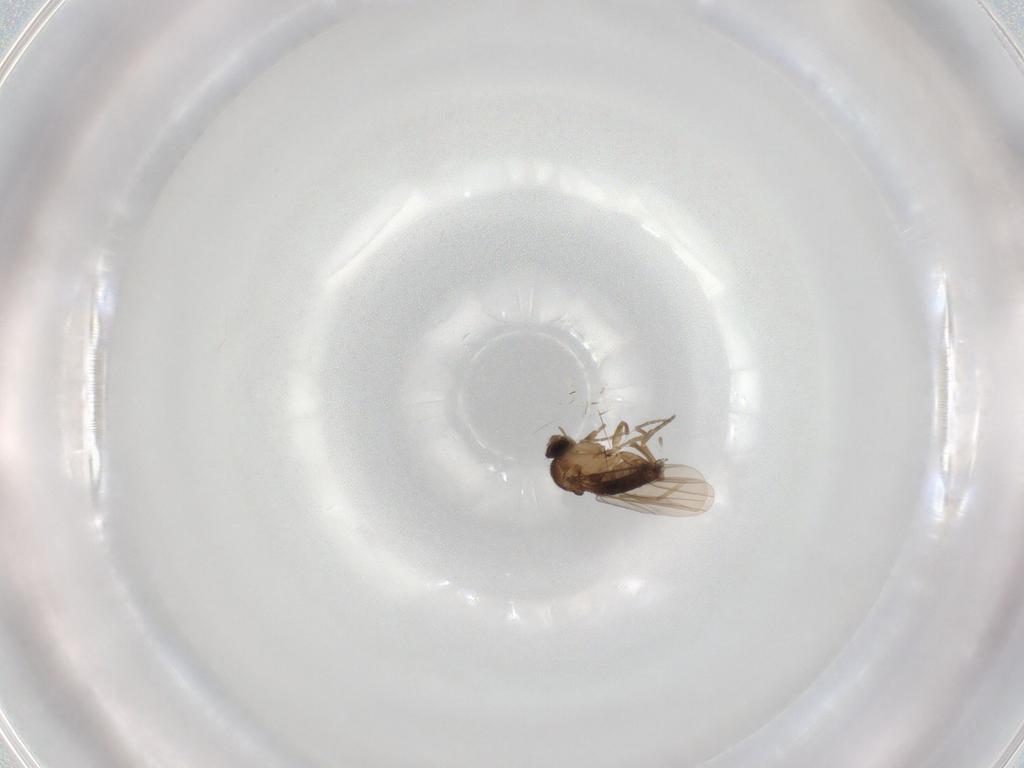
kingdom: Animalia
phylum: Arthropoda
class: Insecta
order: Diptera
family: Phoridae
